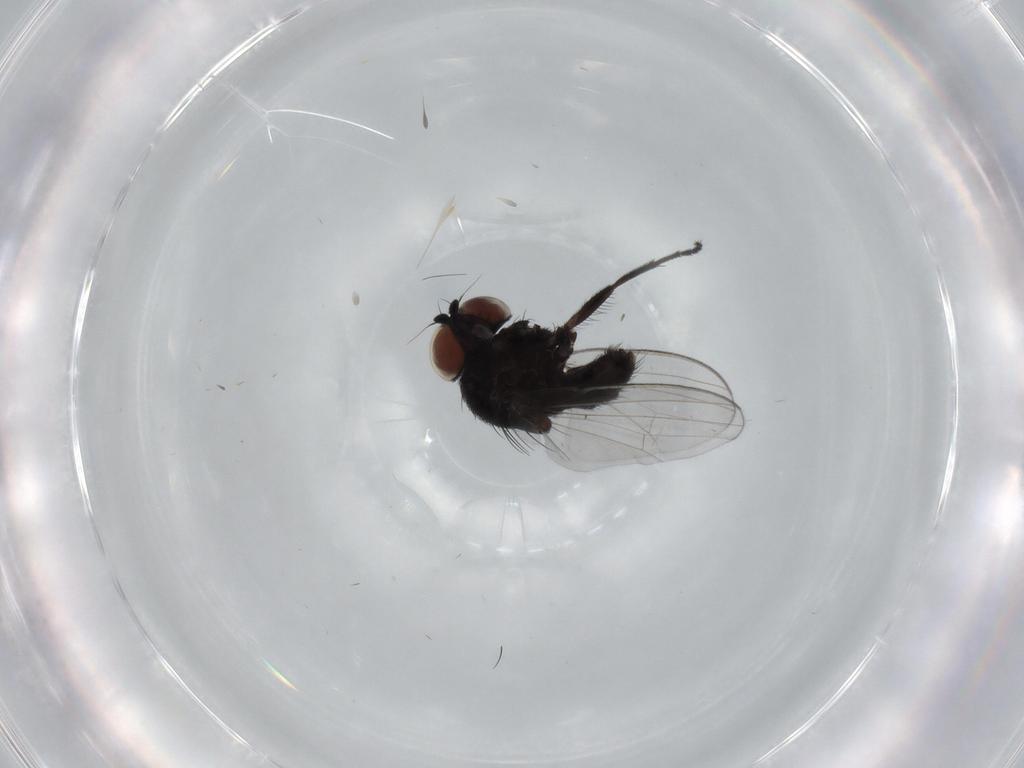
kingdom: Animalia
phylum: Arthropoda
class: Insecta
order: Diptera
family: Milichiidae
